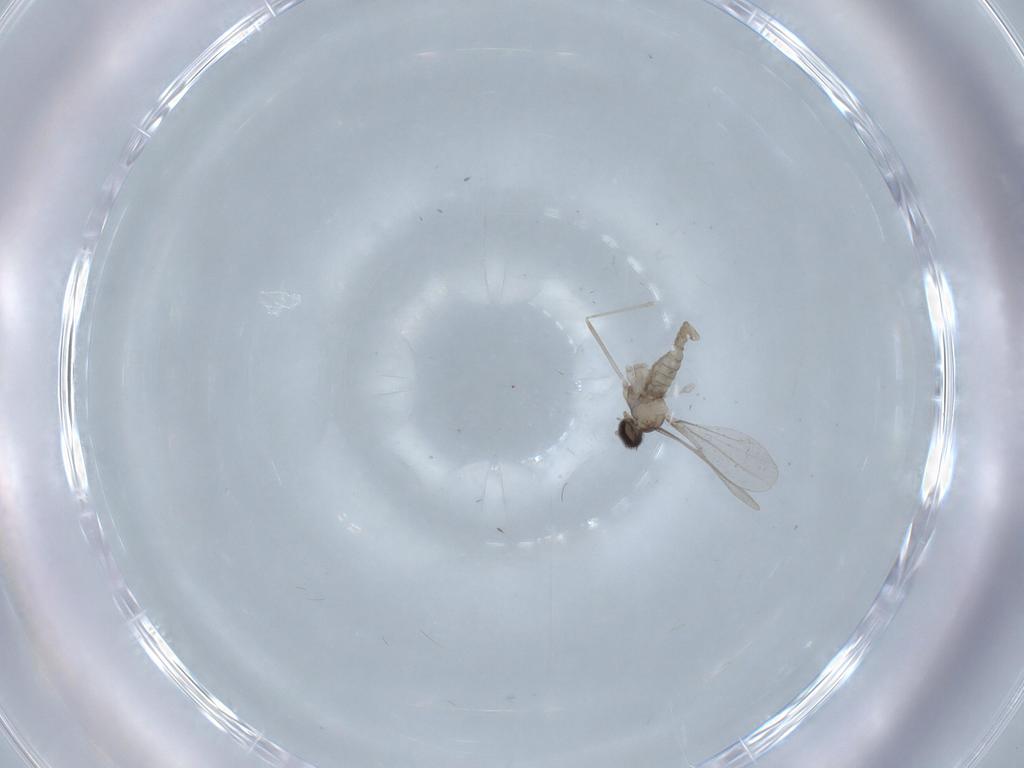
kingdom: Animalia
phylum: Arthropoda
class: Insecta
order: Diptera
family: Cecidomyiidae
